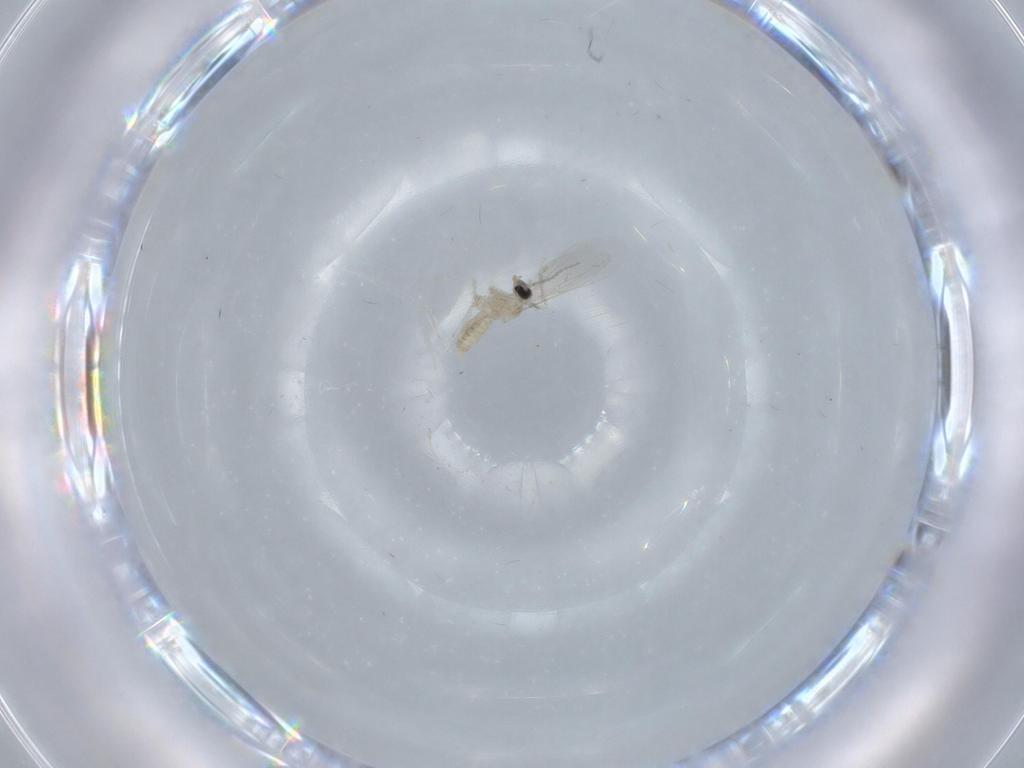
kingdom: Animalia
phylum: Arthropoda
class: Insecta
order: Diptera
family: Cecidomyiidae
